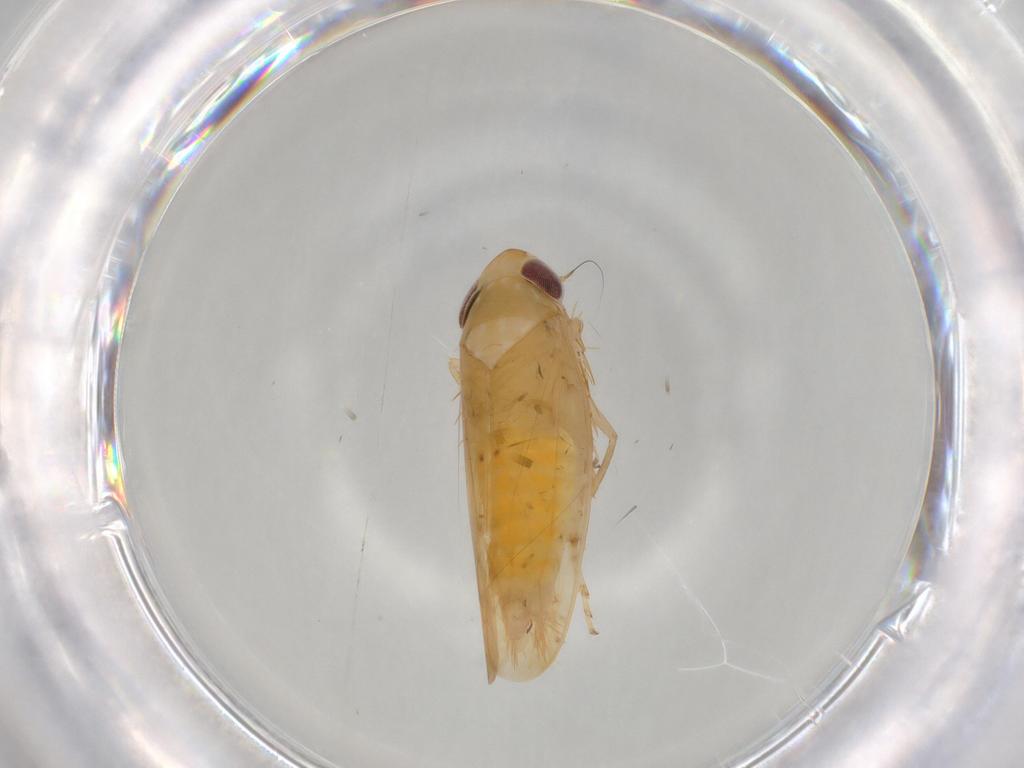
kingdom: Animalia
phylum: Arthropoda
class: Insecta
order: Hemiptera
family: Cicadellidae
